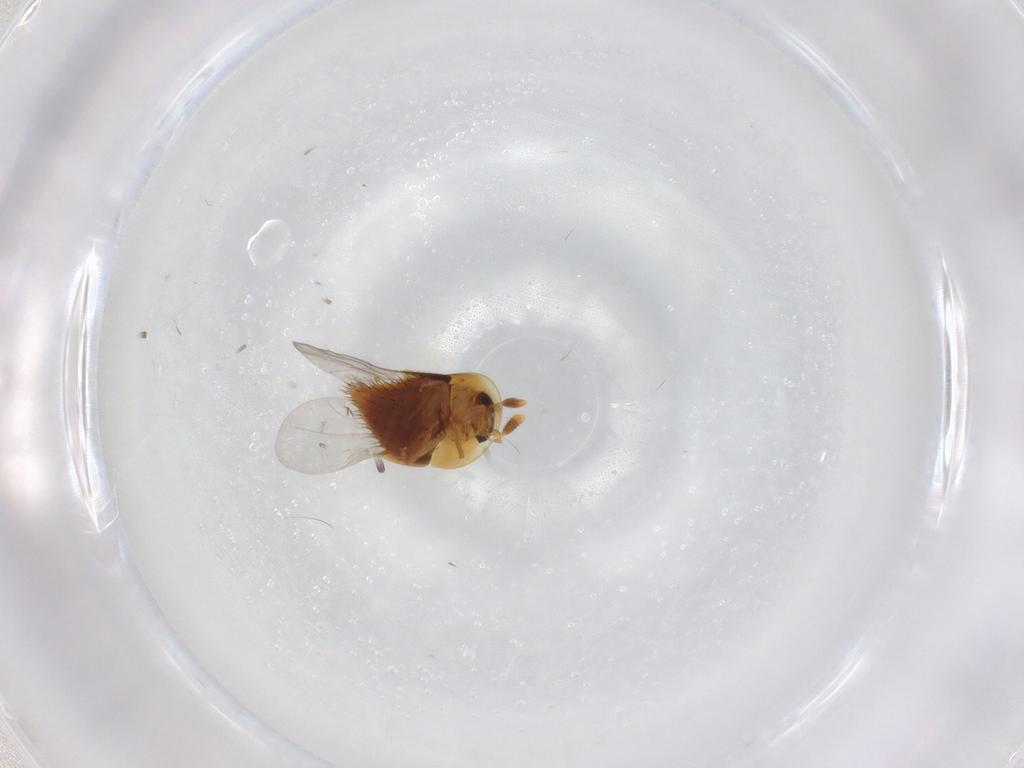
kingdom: Animalia
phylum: Arthropoda
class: Insecta
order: Coleoptera
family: Staphylinidae
